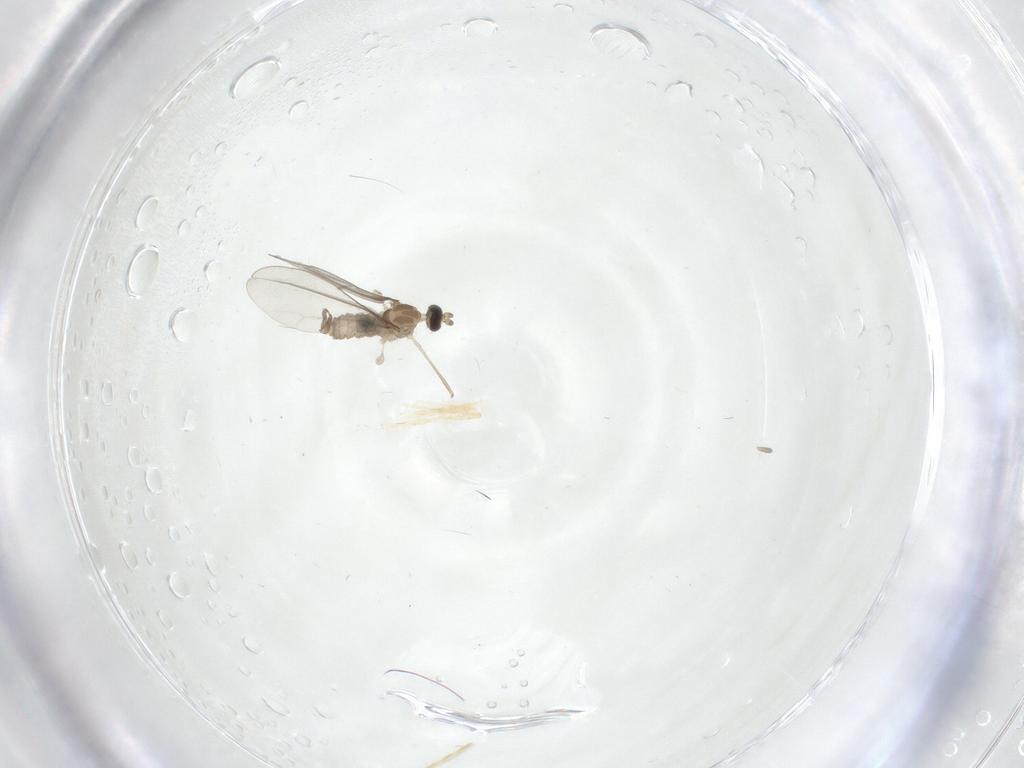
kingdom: Animalia
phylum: Arthropoda
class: Insecta
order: Diptera
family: Cecidomyiidae
